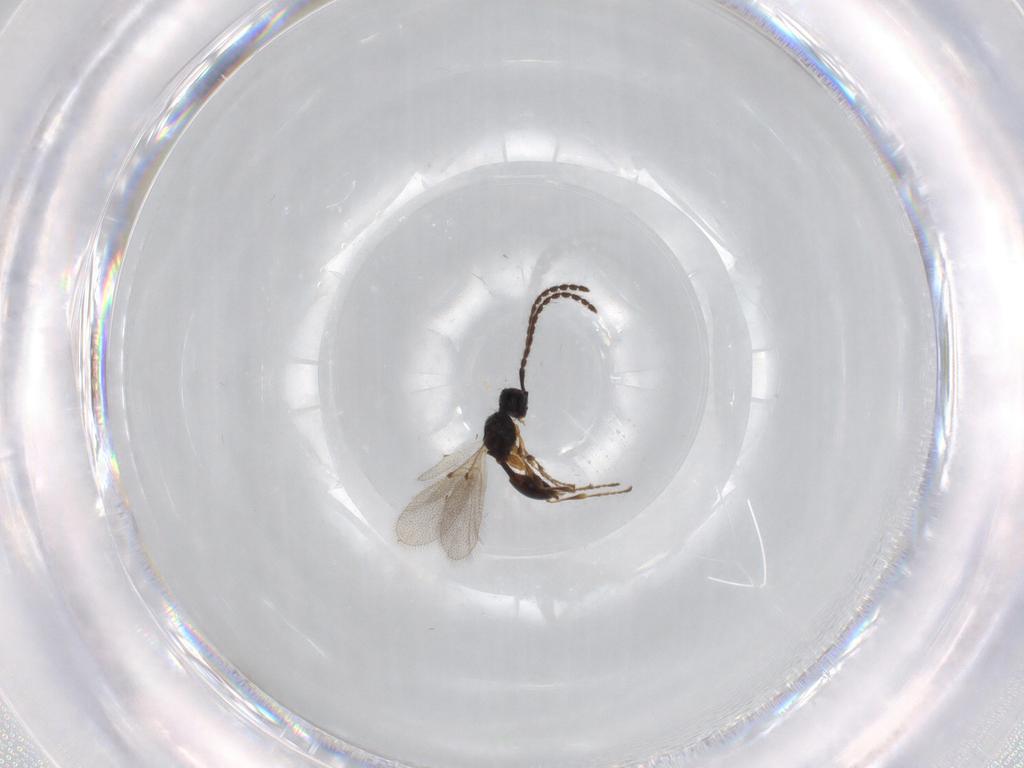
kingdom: Animalia
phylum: Arthropoda
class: Insecta
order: Hymenoptera
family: Diapriidae
